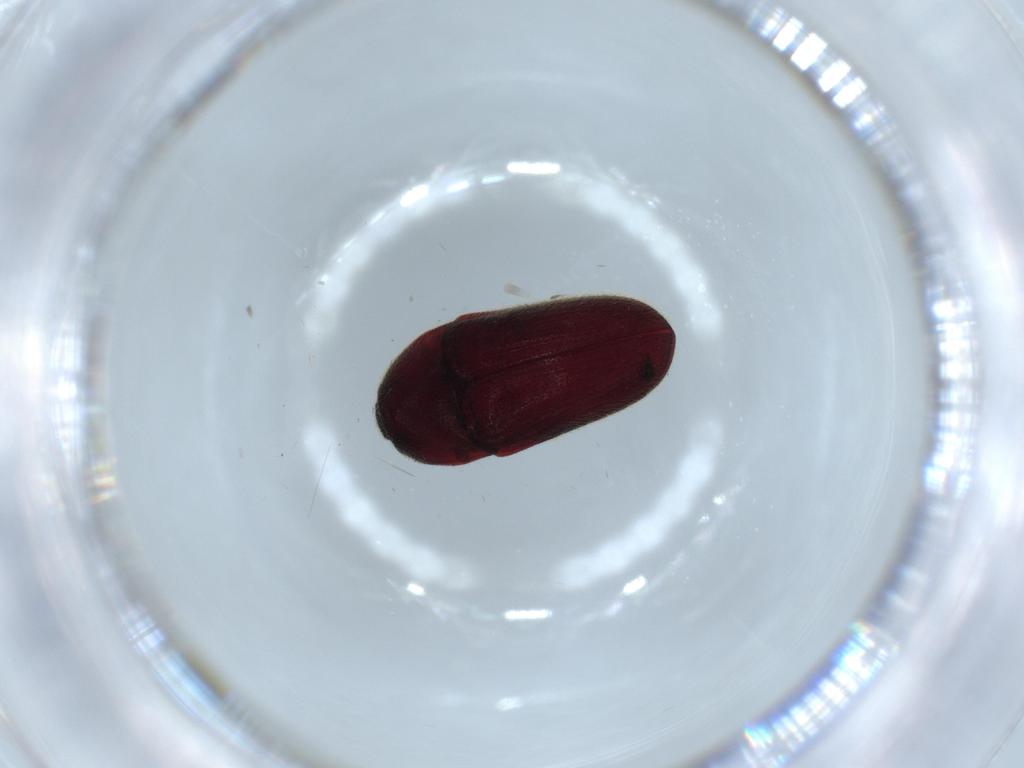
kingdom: Animalia
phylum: Arthropoda
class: Insecta
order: Coleoptera
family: Throscidae
